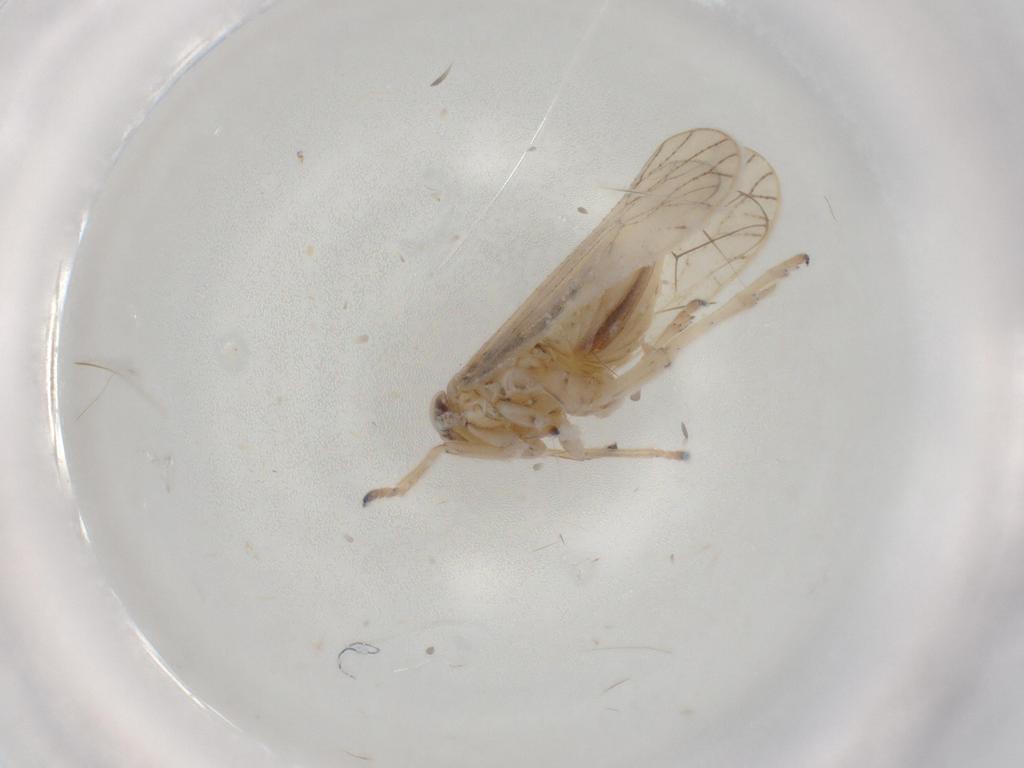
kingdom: Animalia
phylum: Arthropoda
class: Insecta
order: Hemiptera
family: Delphacidae
